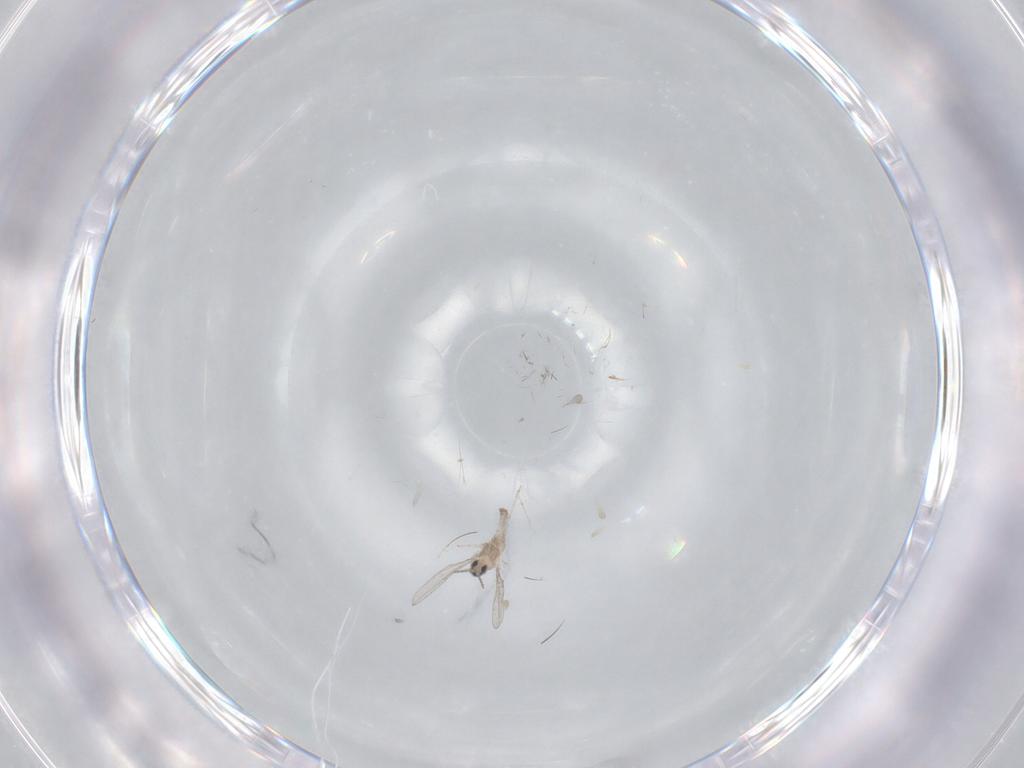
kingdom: Animalia
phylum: Arthropoda
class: Insecta
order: Diptera
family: Cecidomyiidae
